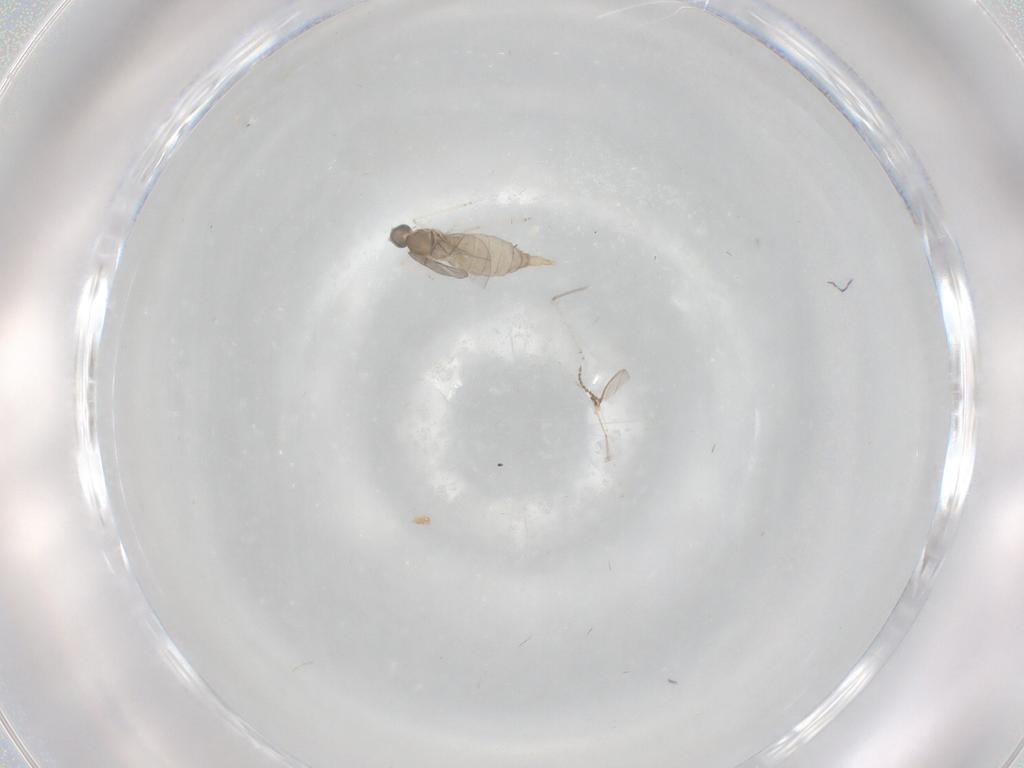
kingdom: Animalia
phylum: Arthropoda
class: Insecta
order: Diptera
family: Cecidomyiidae
